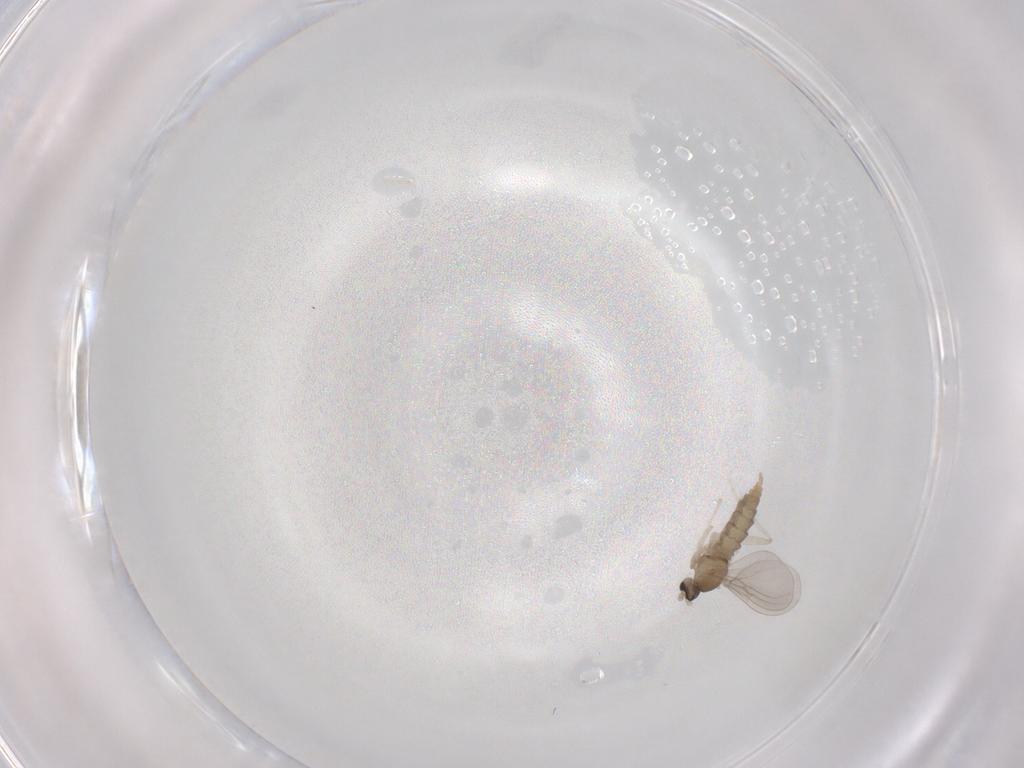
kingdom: Animalia
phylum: Arthropoda
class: Insecta
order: Diptera
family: Cecidomyiidae
